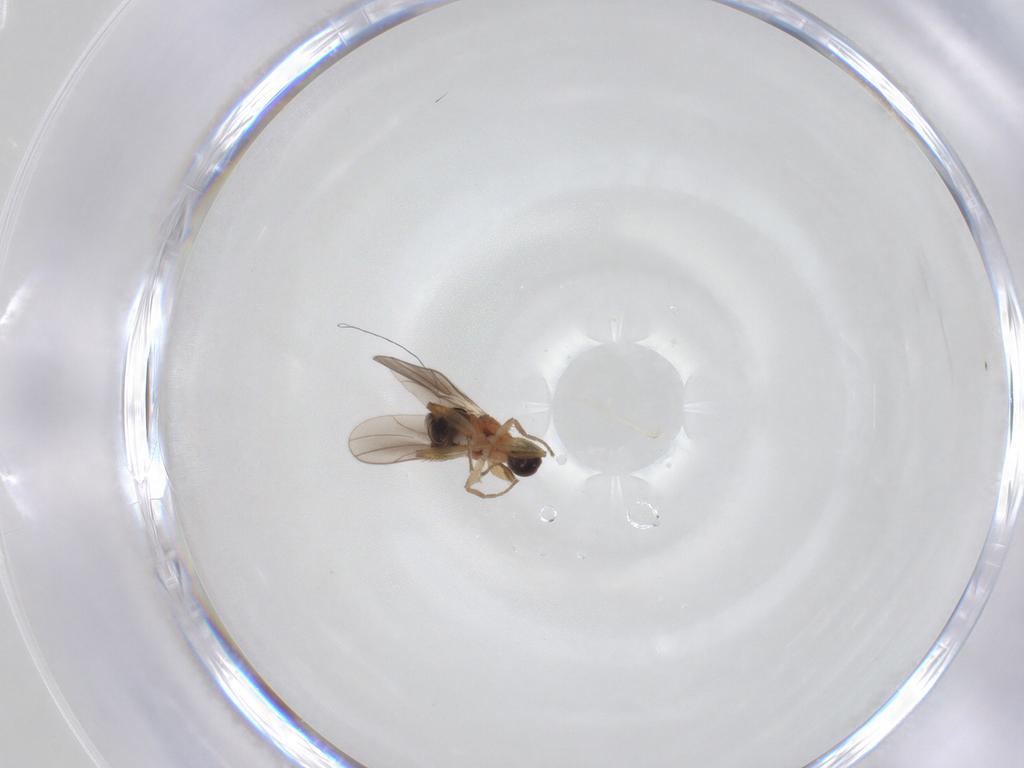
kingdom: Animalia
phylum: Arthropoda
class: Insecta
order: Diptera
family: Hybotidae
